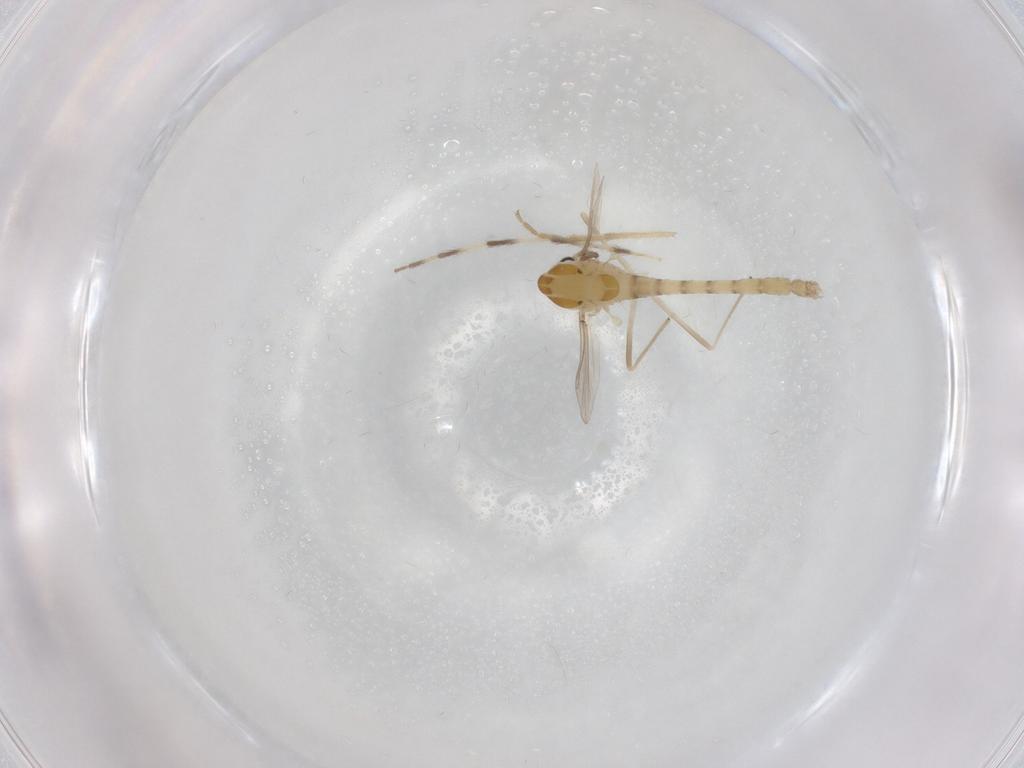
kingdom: Animalia
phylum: Arthropoda
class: Insecta
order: Diptera
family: Chironomidae
